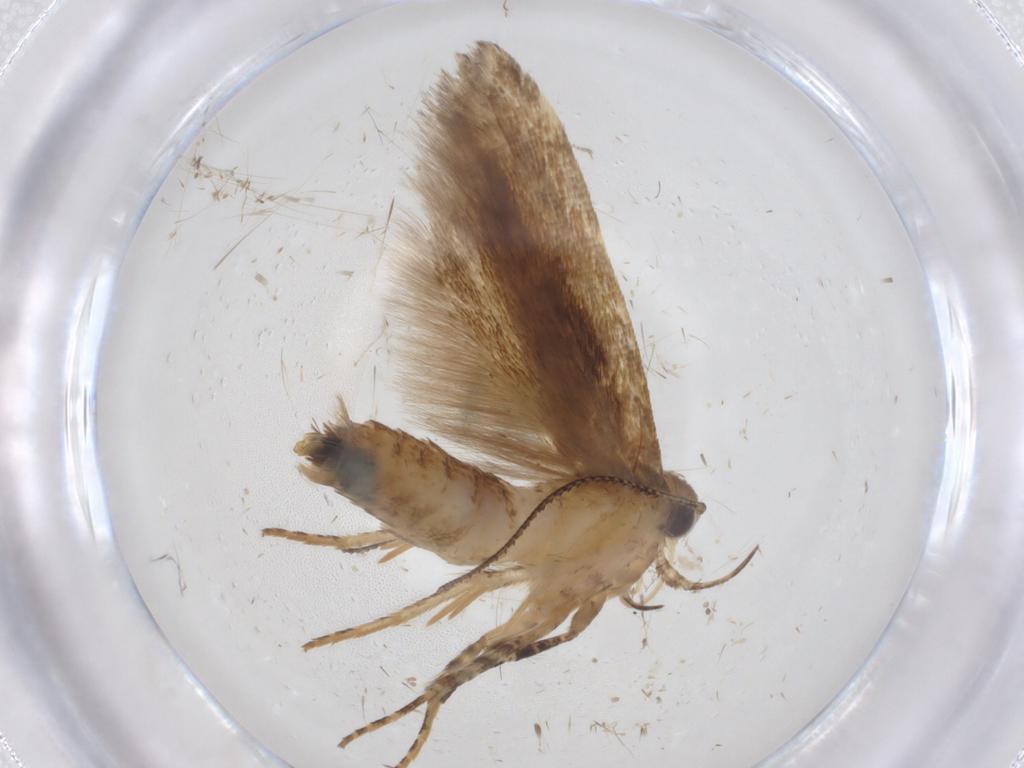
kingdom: Animalia
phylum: Arthropoda
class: Insecta
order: Lepidoptera
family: Gelechiidae
